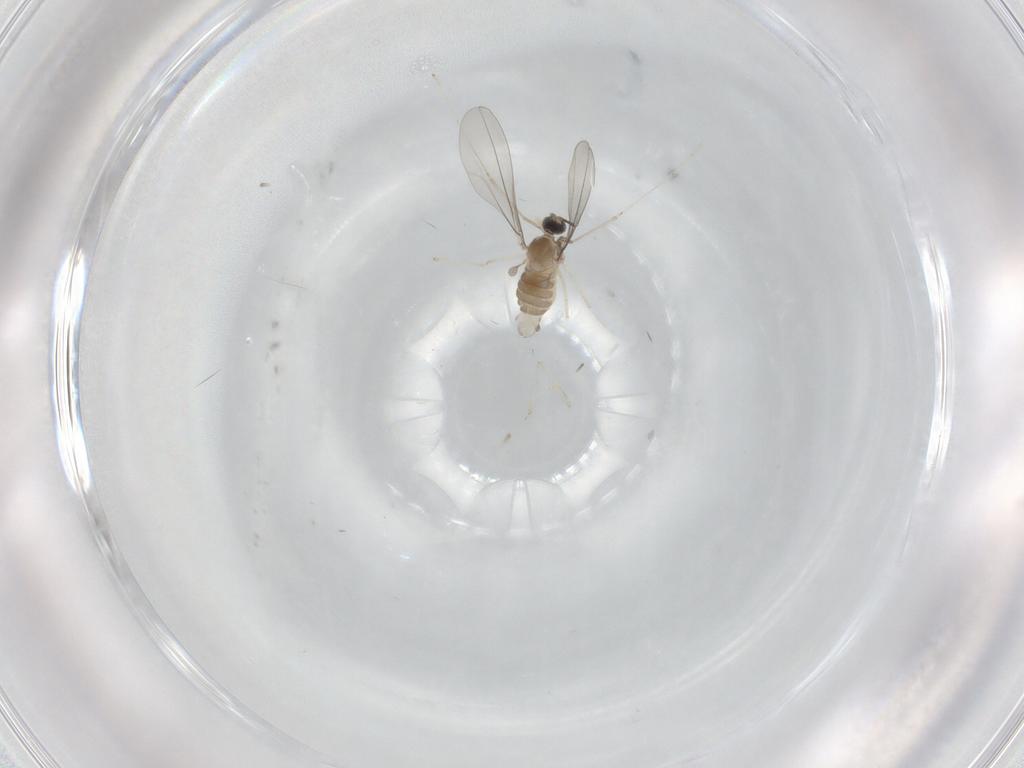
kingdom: Animalia
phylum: Arthropoda
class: Insecta
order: Diptera
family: Cecidomyiidae
